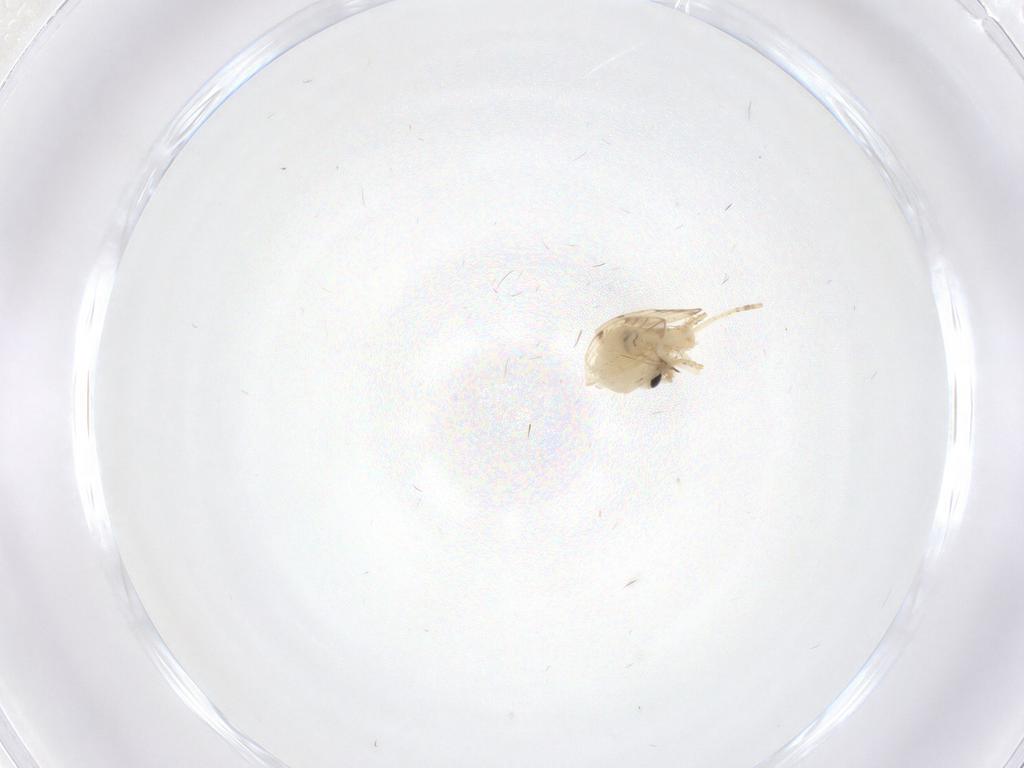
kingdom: Animalia
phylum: Arthropoda
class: Insecta
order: Diptera
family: Psychodidae
